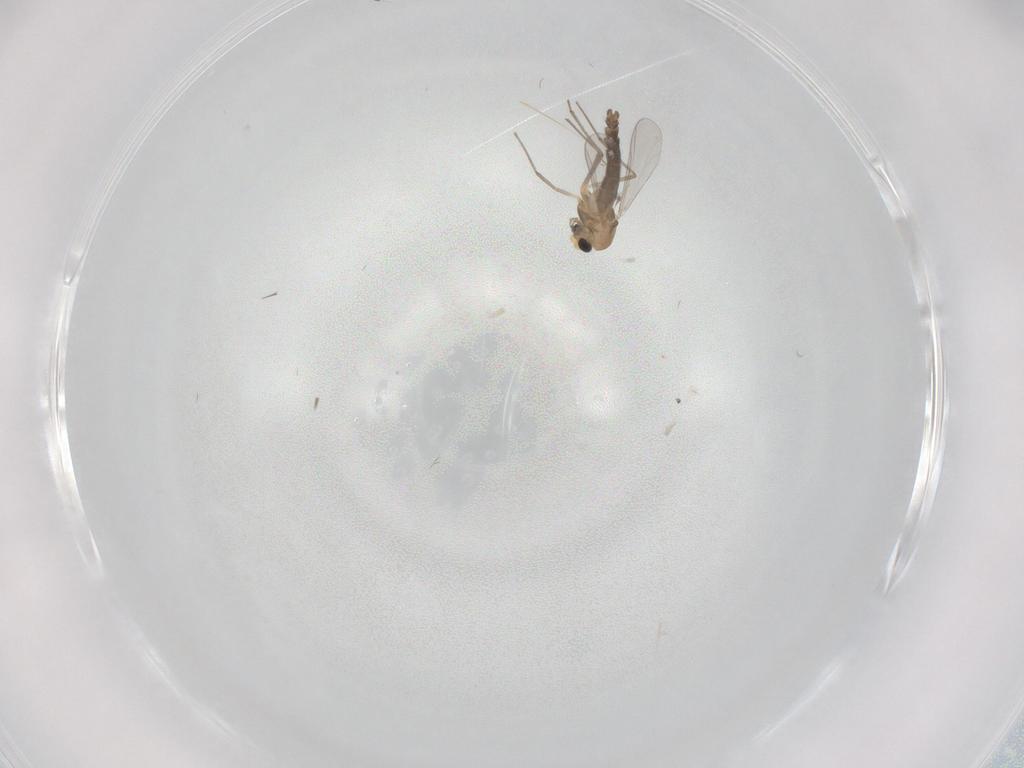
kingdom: Animalia
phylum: Arthropoda
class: Insecta
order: Diptera
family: Chironomidae
